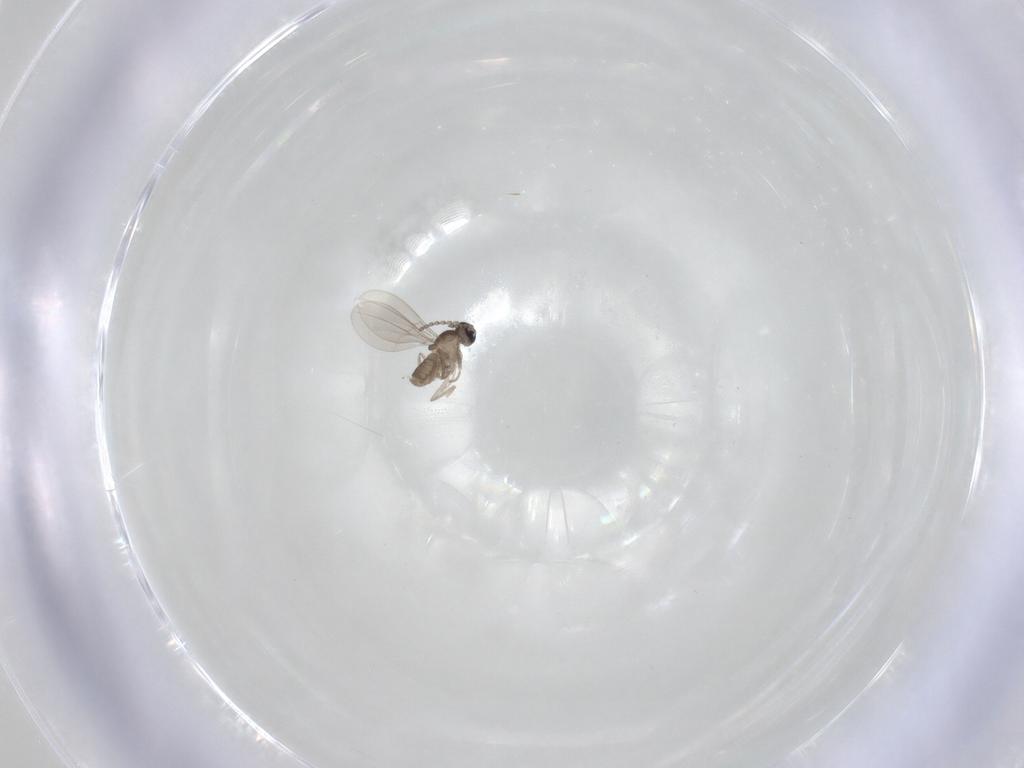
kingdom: Animalia
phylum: Arthropoda
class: Insecta
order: Diptera
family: Cecidomyiidae
